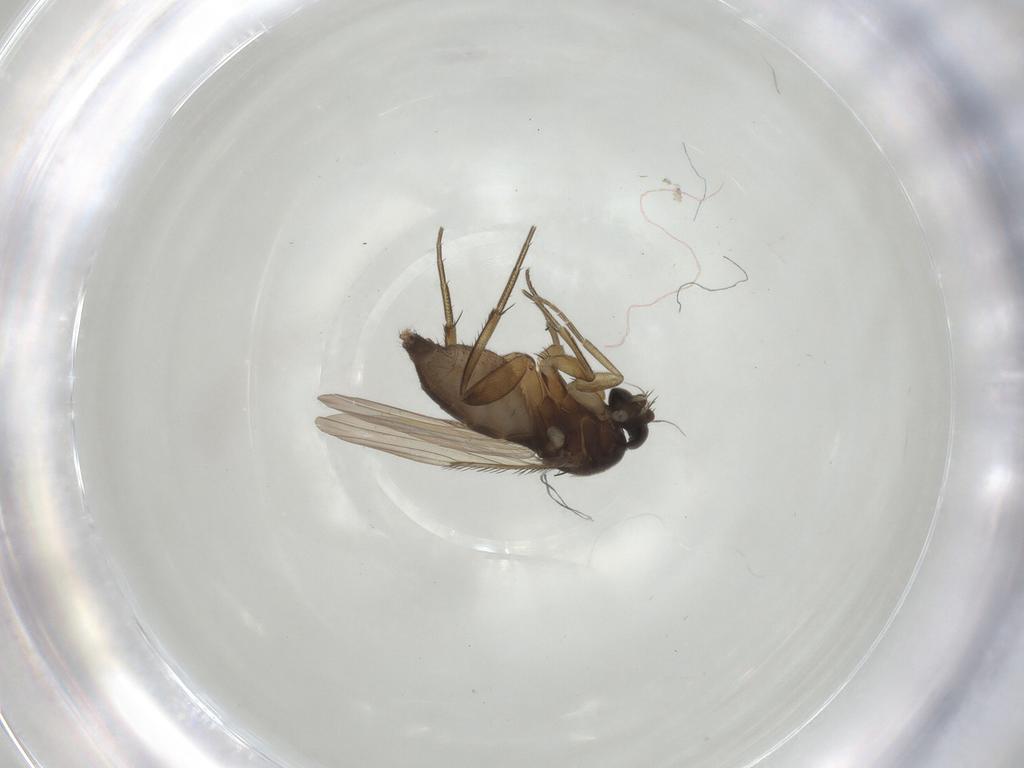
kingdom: Animalia
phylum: Arthropoda
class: Insecta
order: Diptera
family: Phoridae
